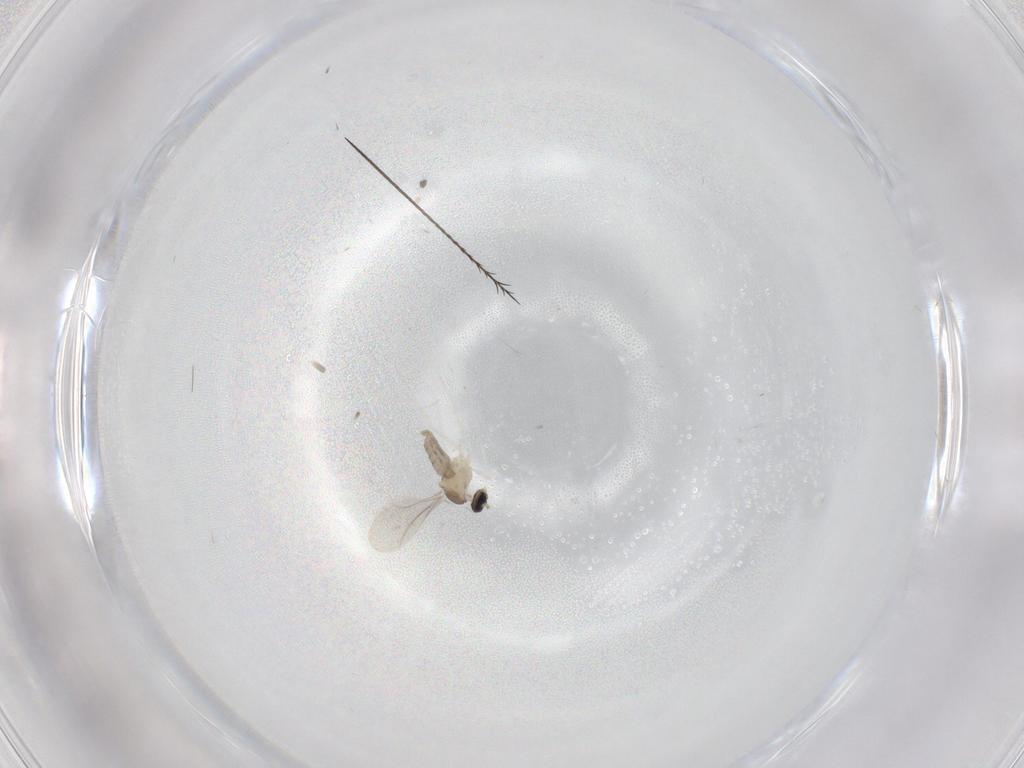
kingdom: Animalia
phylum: Arthropoda
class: Insecta
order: Diptera
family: Cecidomyiidae
